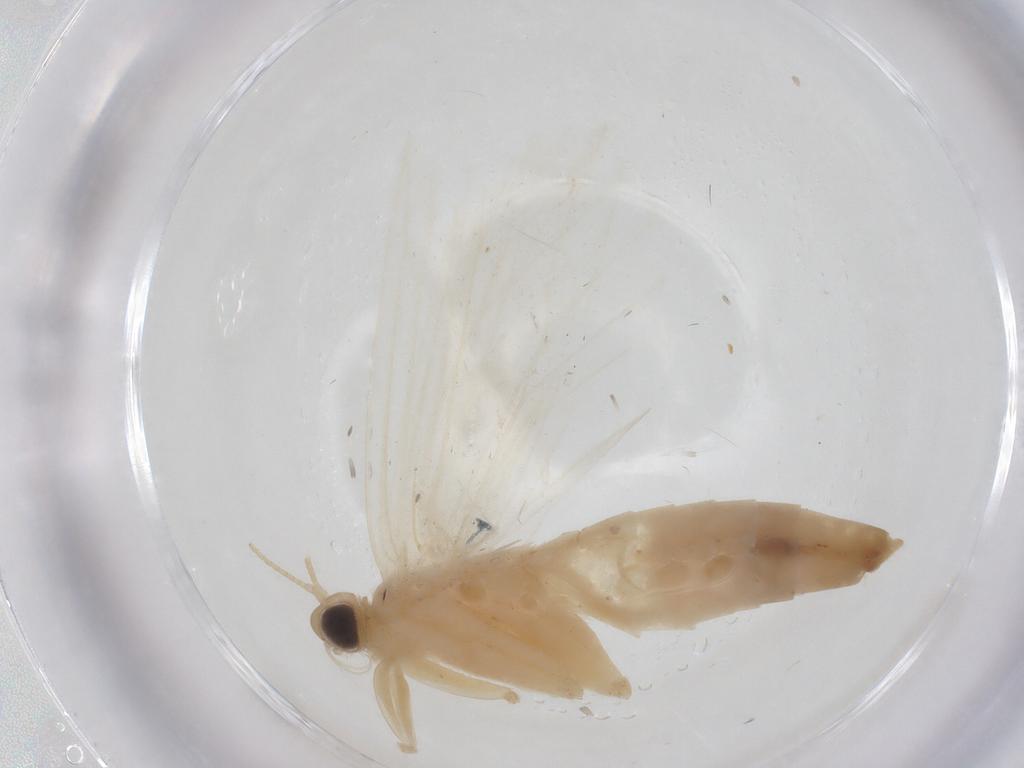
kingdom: Animalia
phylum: Arthropoda
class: Insecta
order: Lepidoptera
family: Crambidae
